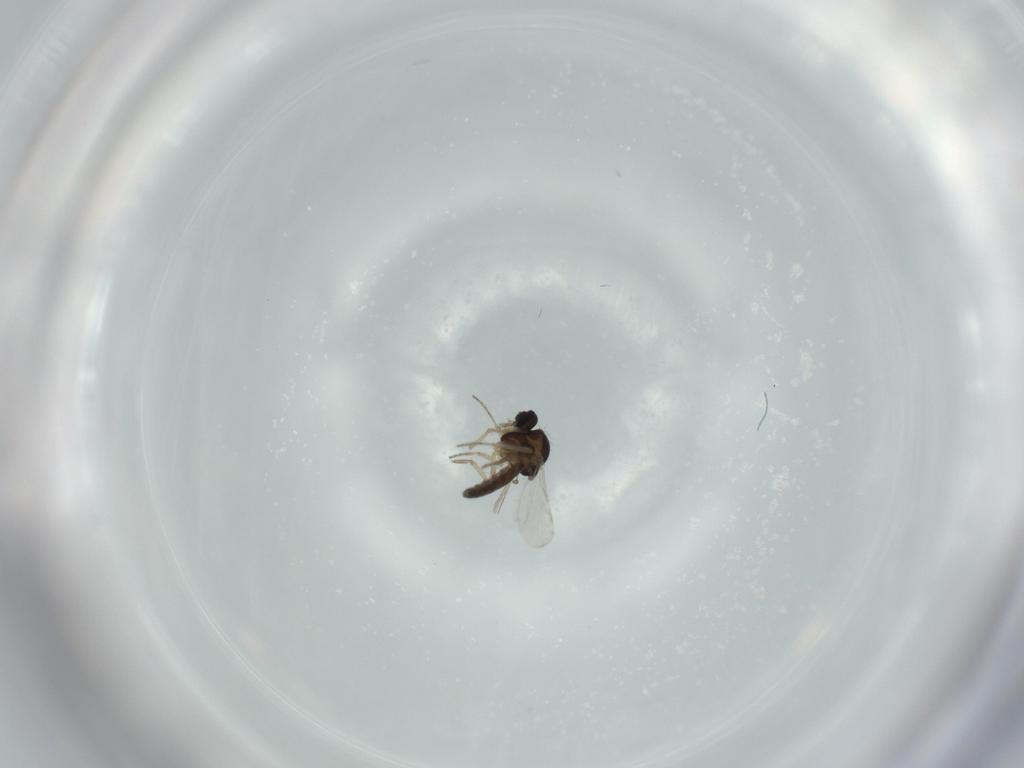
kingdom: Animalia
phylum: Arthropoda
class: Insecta
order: Diptera
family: Ceratopogonidae
